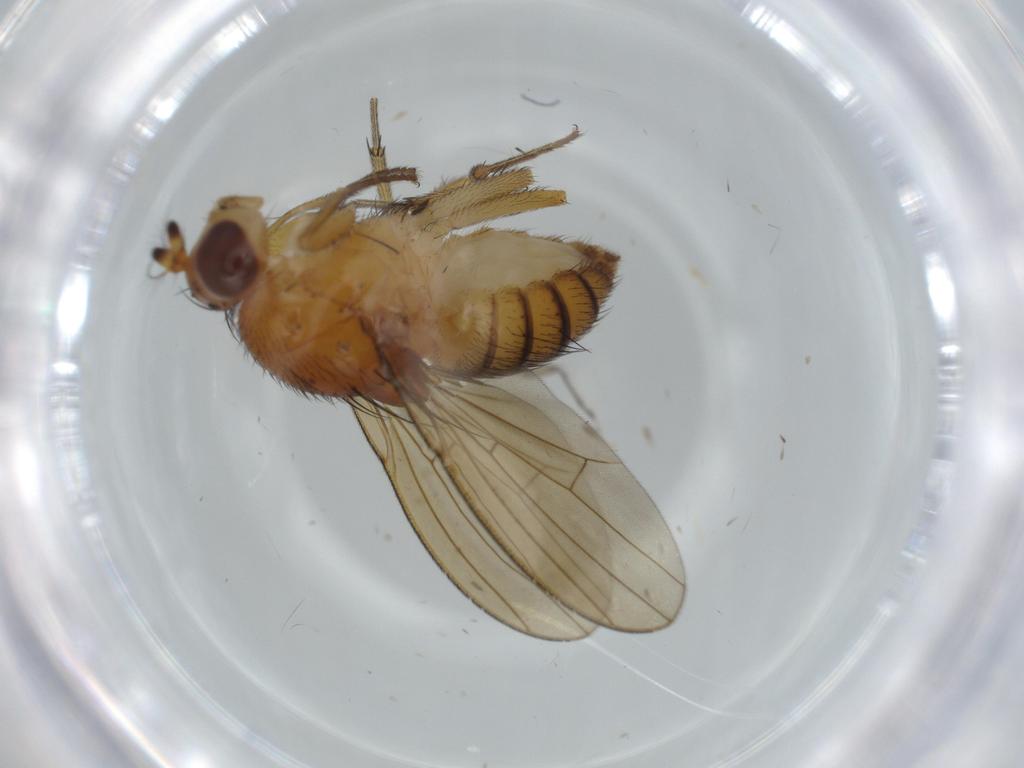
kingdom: Animalia
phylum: Arthropoda
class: Insecta
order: Diptera
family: Lauxaniidae
